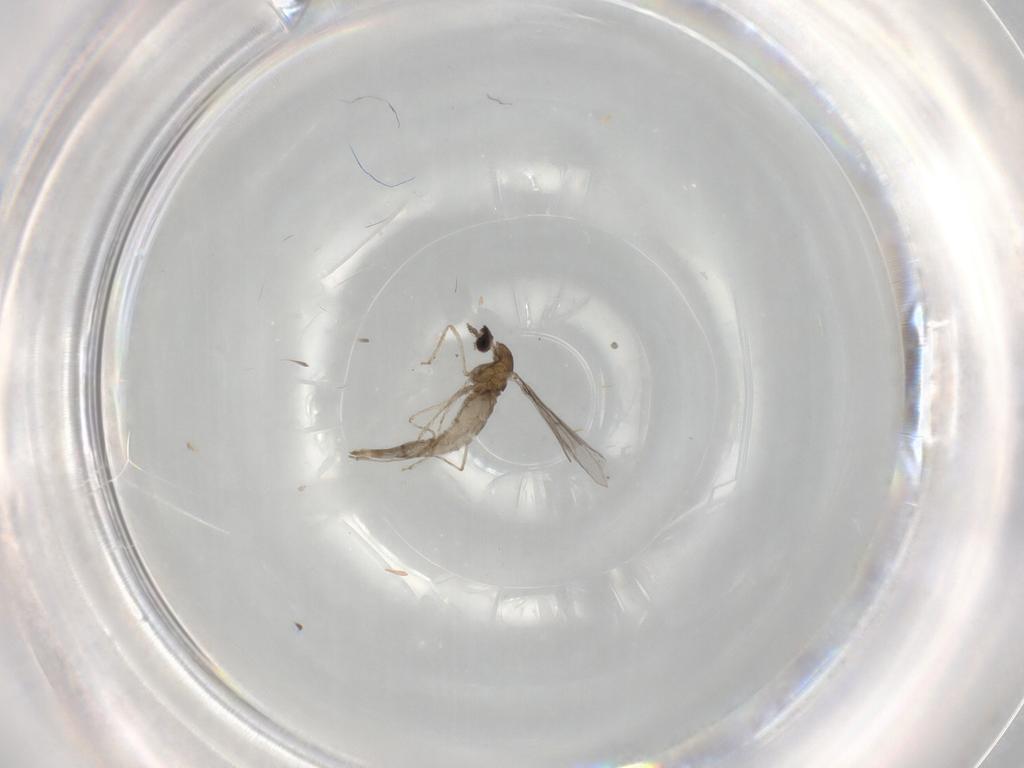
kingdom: Animalia
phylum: Arthropoda
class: Insecta
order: Diptera
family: Cecidomyiidae
